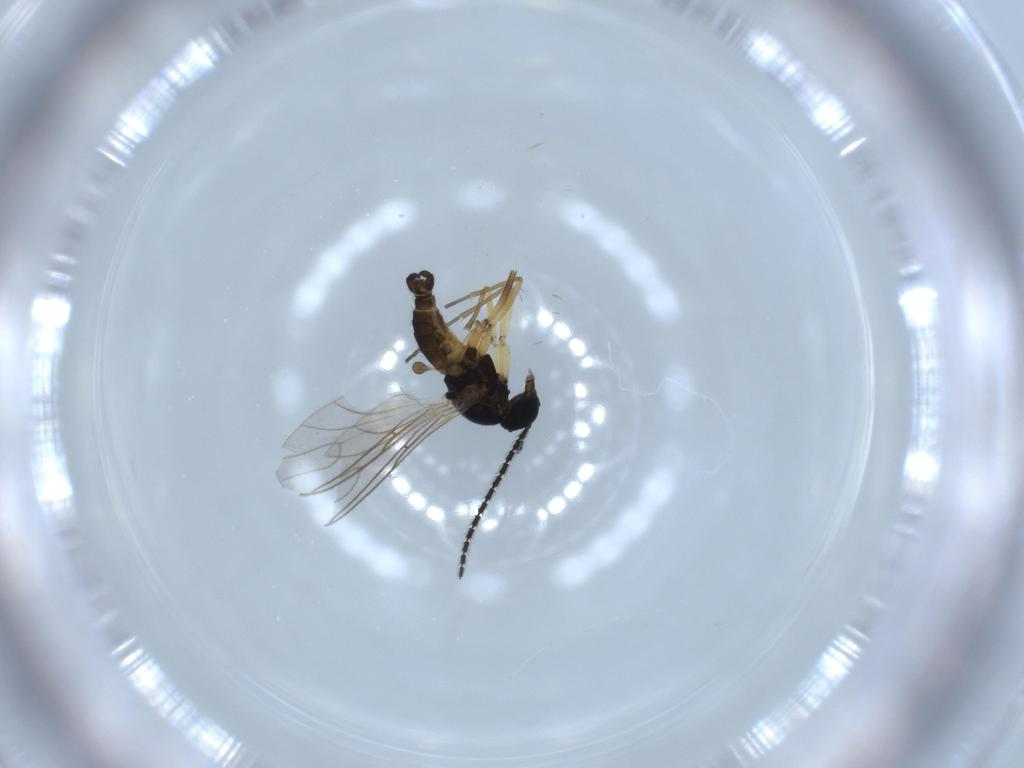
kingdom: Animalia
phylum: Arthropoda
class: Insecta
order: Diptera
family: Sciaridae
